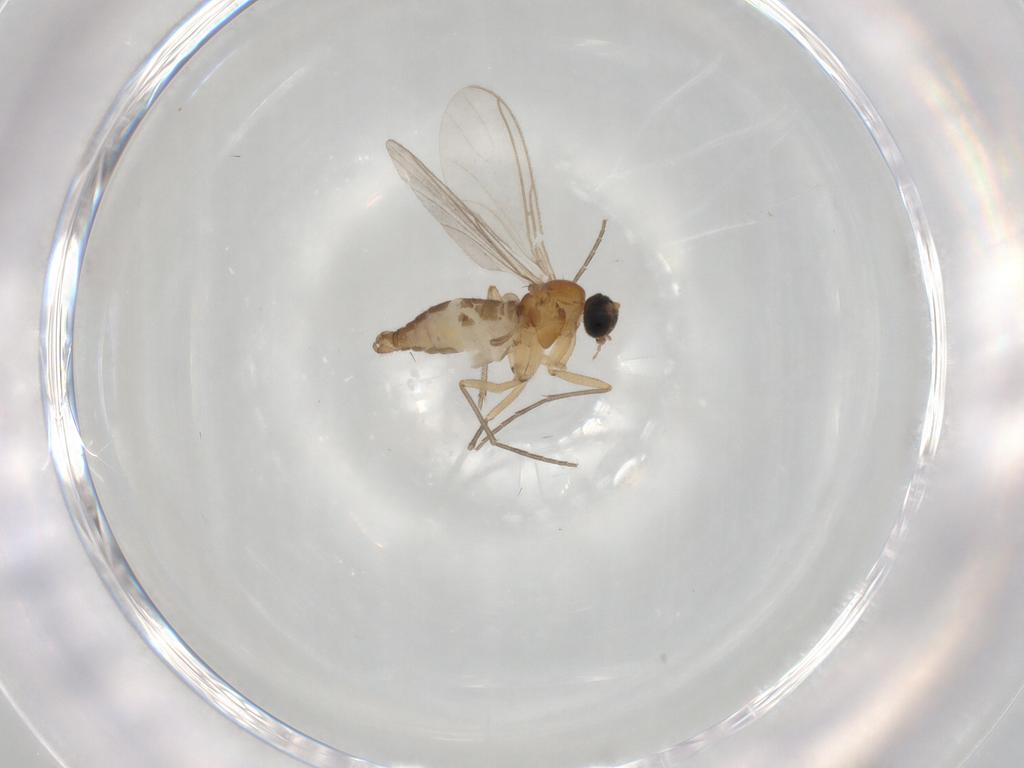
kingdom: Animalia
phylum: Arthropoda
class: Insecta
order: Diptera
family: Sciaridae
